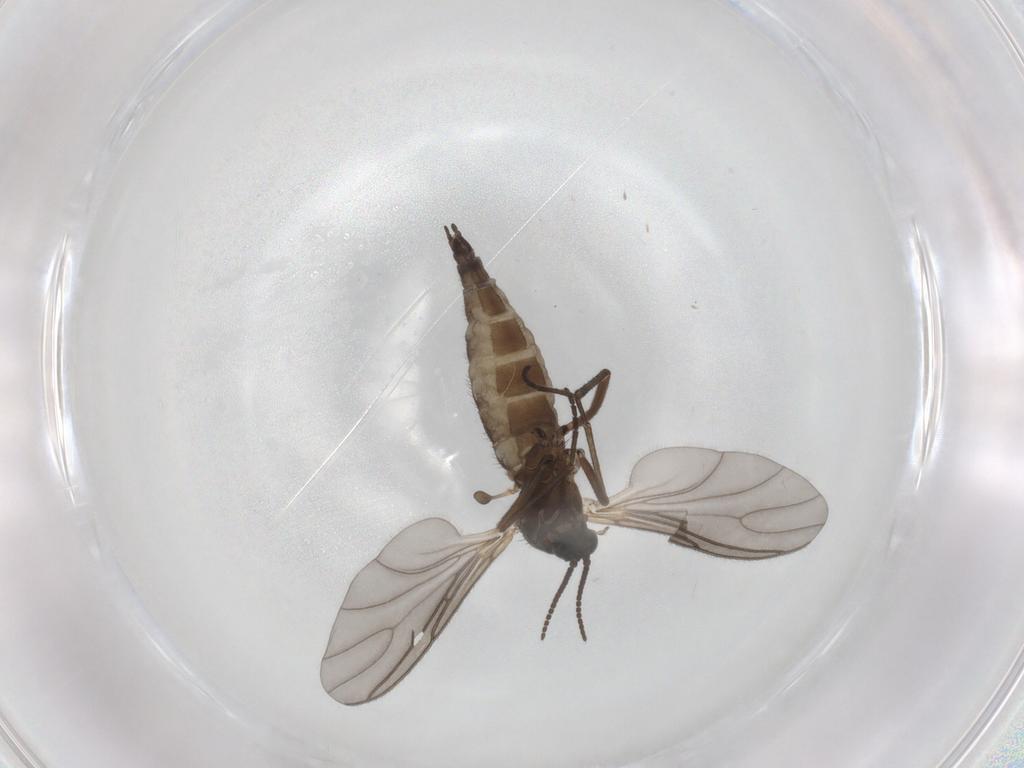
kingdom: Animalia
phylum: Arthropoda
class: Insecta
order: Diptera
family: Sciaridae
